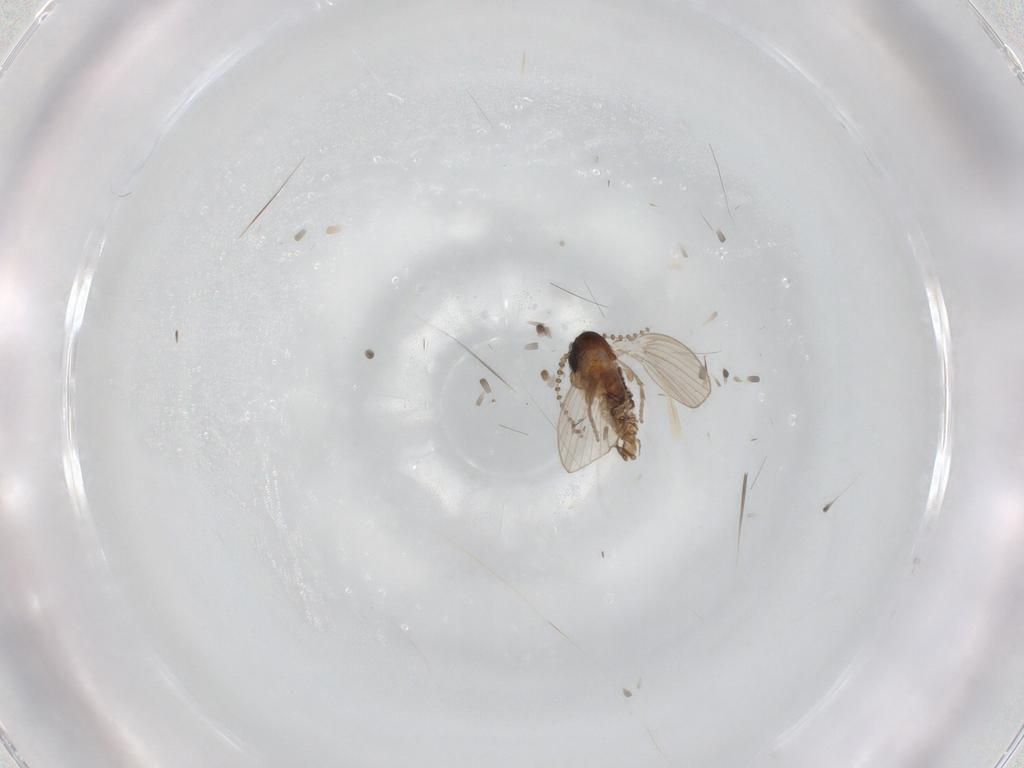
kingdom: Animalia
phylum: Arthropoda
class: Insecta
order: Diptera
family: Psychodidae
